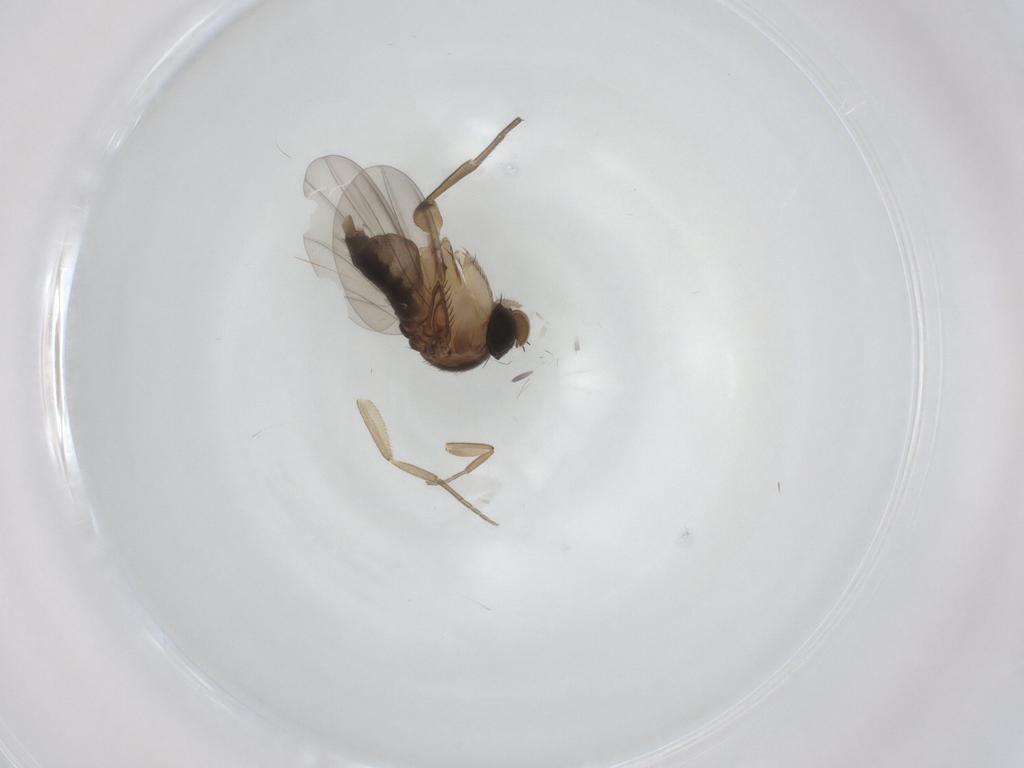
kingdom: Animalia
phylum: Arthropoda
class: Insecta
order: Diptera
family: Phoridae
